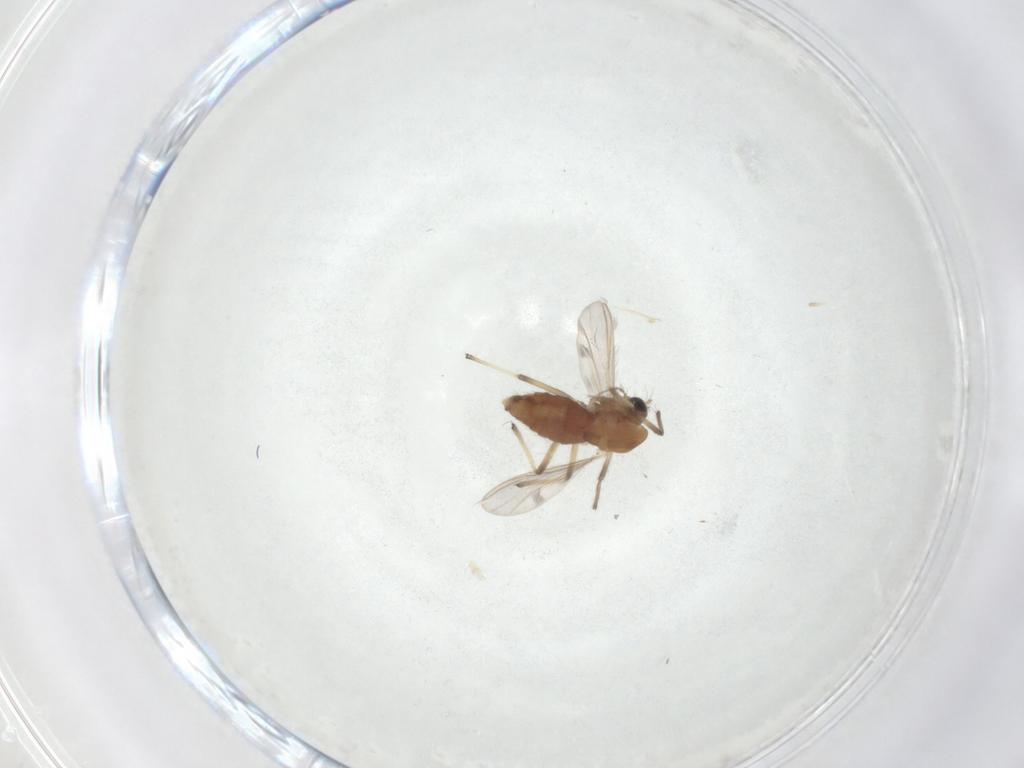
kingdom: Animalia
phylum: Arthropoda
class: Insecta
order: Diptera
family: Chironomidae
